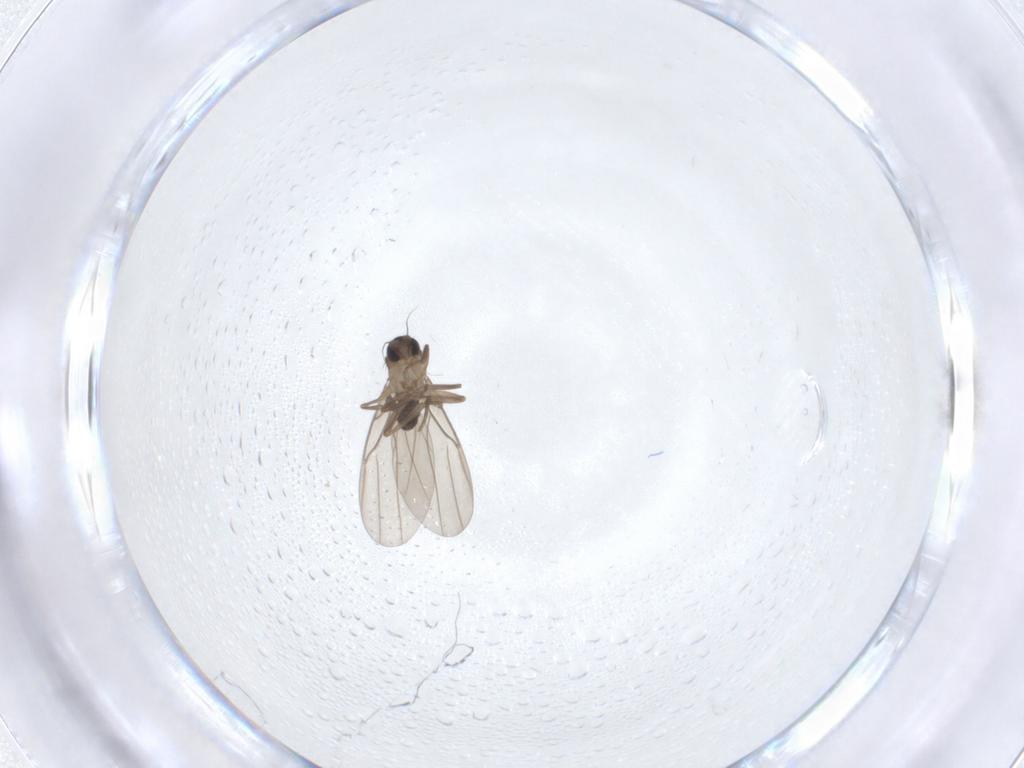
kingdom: Animalia
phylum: Arthropoda
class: Insecta
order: Diptera
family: Phoridae
